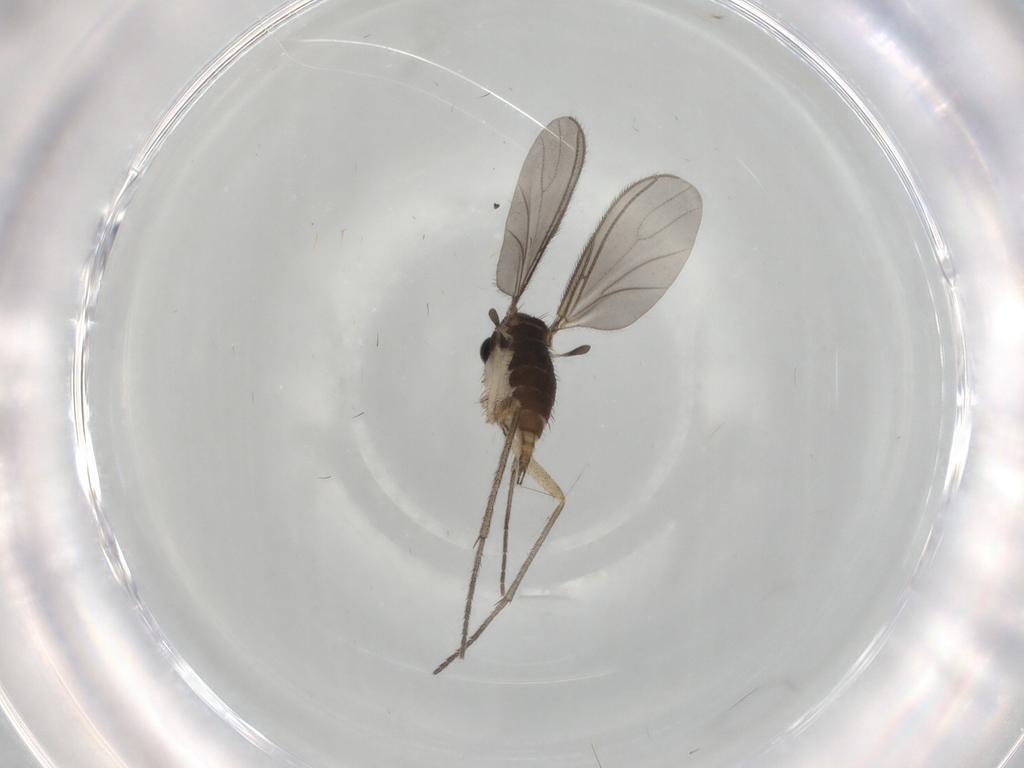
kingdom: Animalia
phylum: Arthropoda
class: Insecta
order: Diptera
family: Sciaridae
